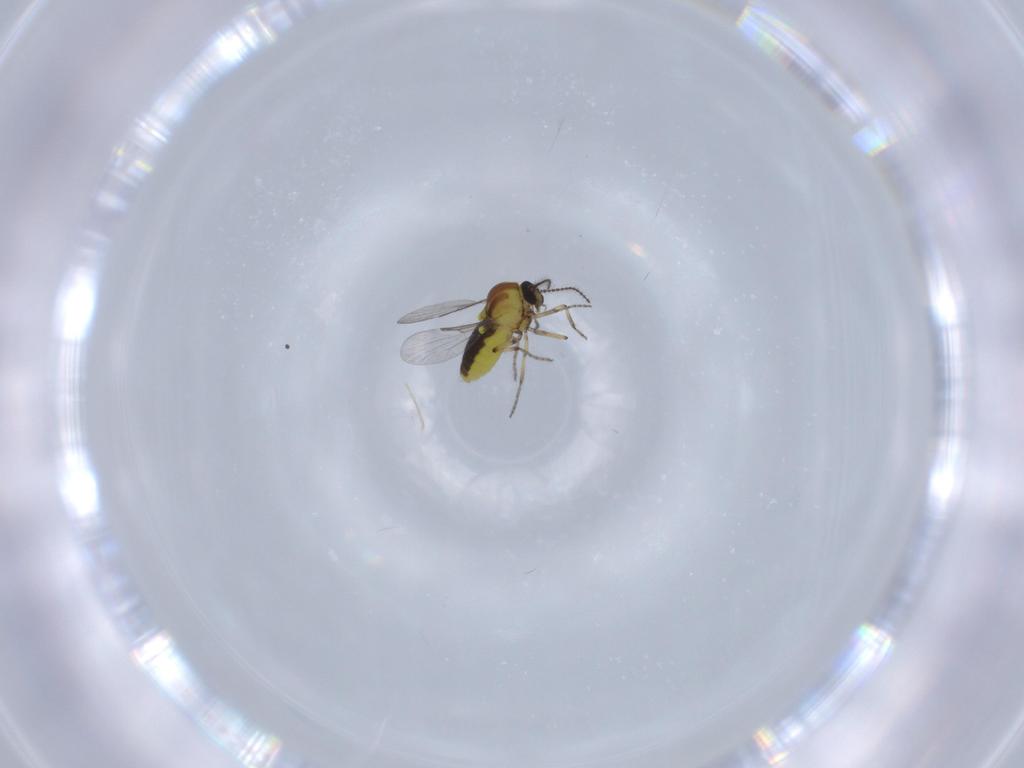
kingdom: Animalia
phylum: Arthropoda
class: Insecta
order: Diptera
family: Ceratopogonidae
